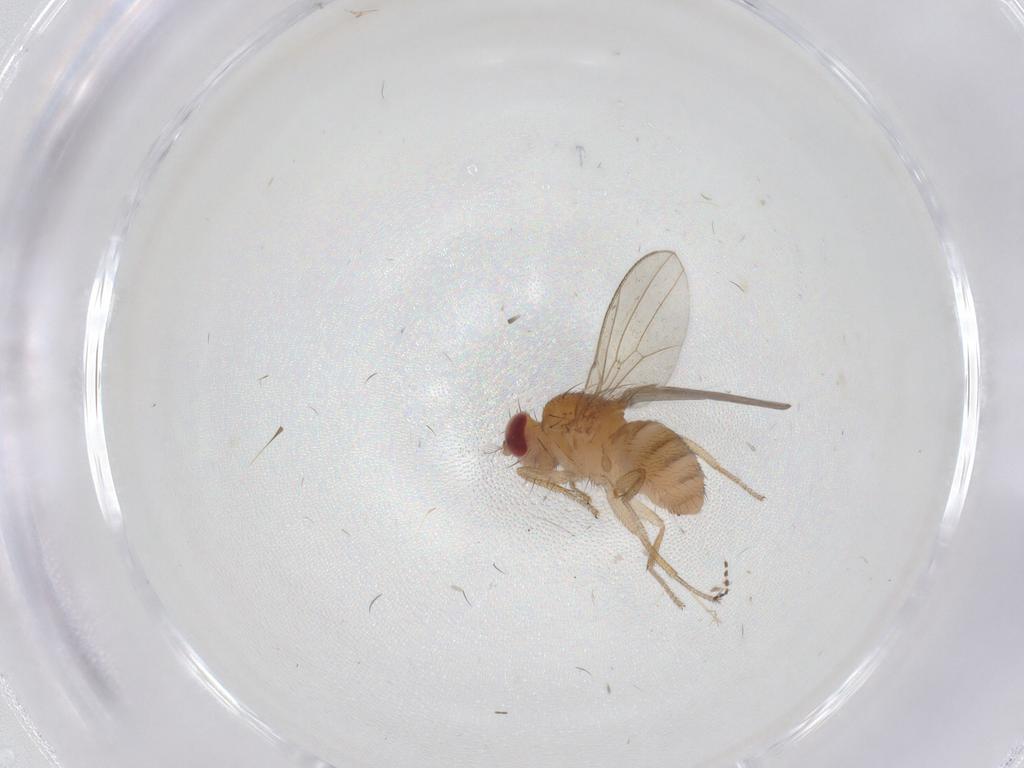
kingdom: Animalia
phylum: Arthropoda
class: Insecta
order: Diptera
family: Drosophilidae
